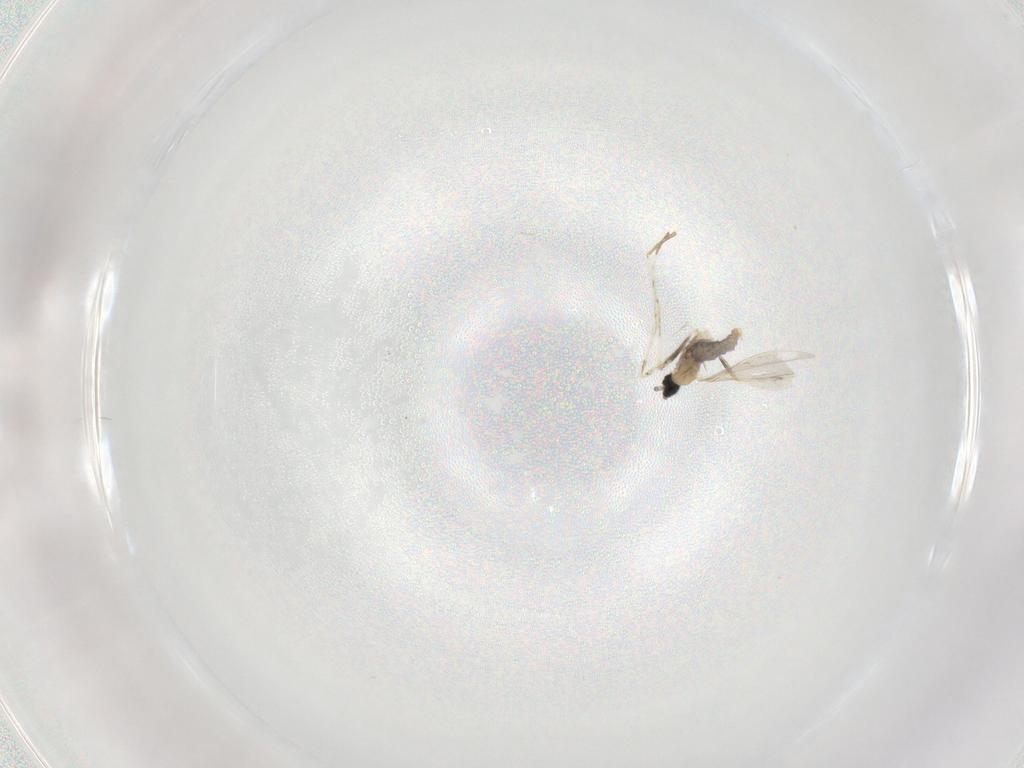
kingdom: Animalia
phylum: Arthropoda
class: Insecta
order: Diptera
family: Cecidomyiidae
